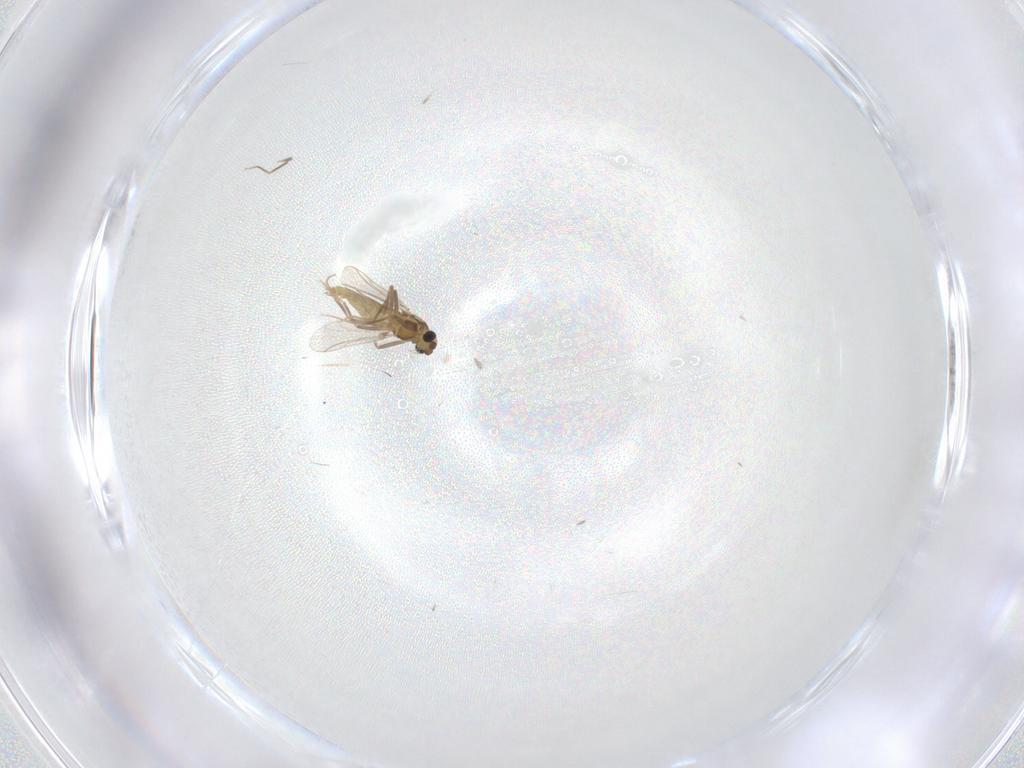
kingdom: Animalia
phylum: Arthropoda
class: Insecta
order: Diptera
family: Chironomidae
